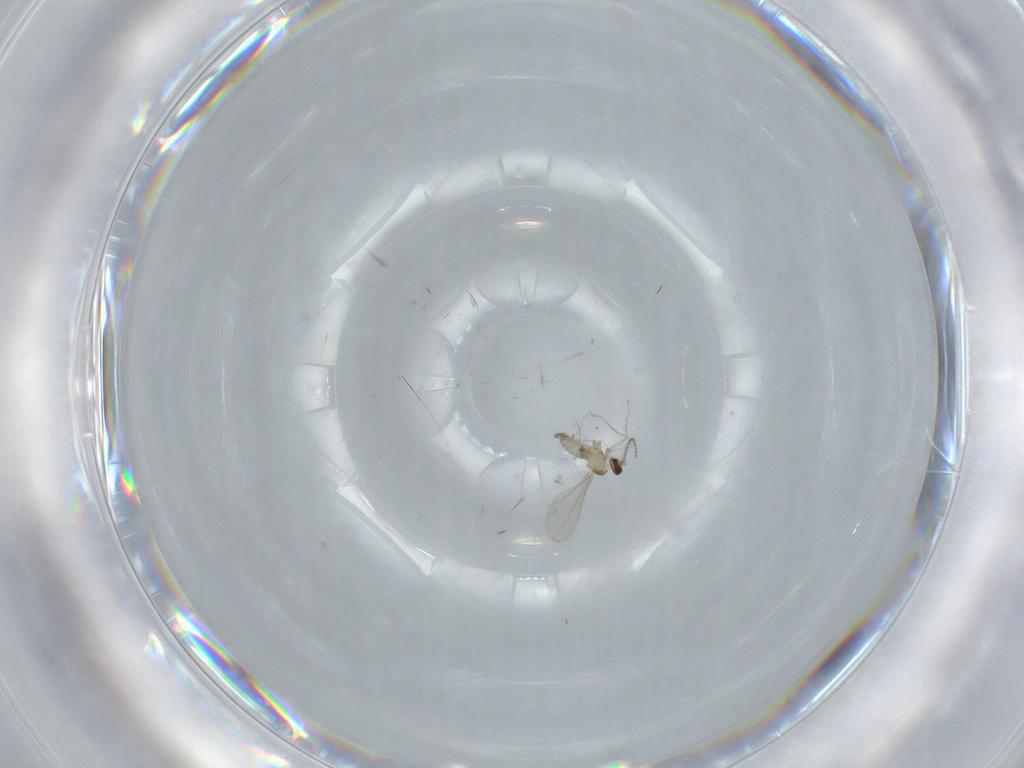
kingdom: Animalia
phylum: Arthropoda
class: Insecta
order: Diptera
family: Cecidomyiidae
